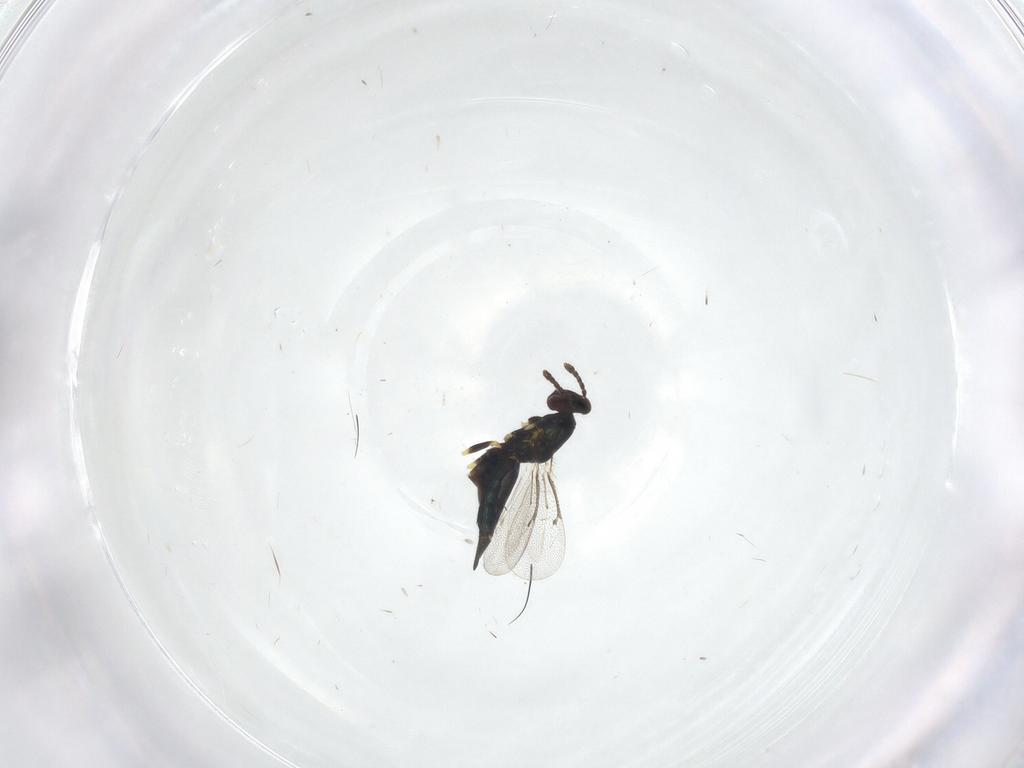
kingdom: Animalia
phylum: Arthropoda
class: Insecta
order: Hymenoptera
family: Eulophidae
